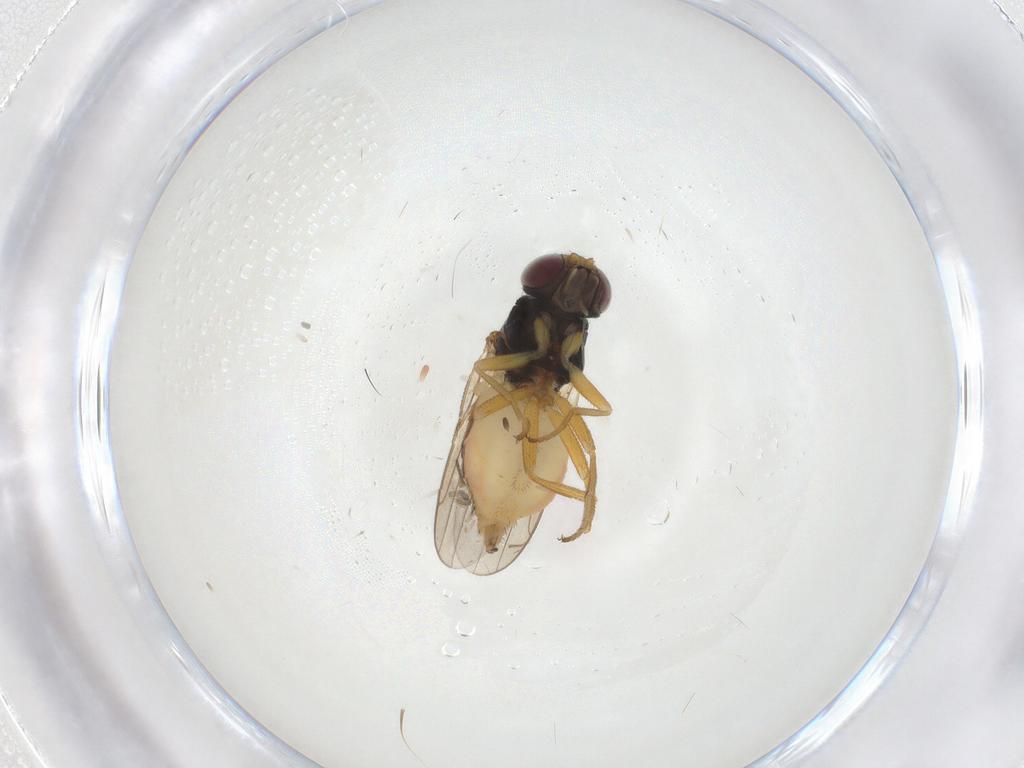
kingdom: Animalia
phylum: Arthropoda
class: Insecta
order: Diptera
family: Chloropidae
